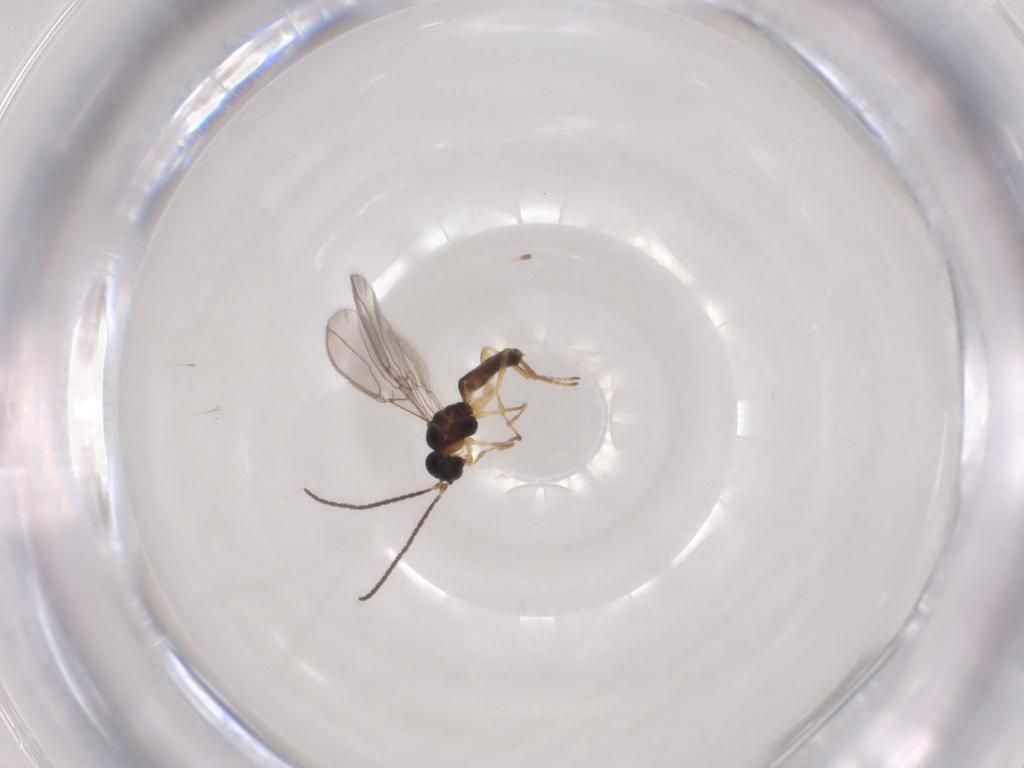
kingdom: Animalia
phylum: Arthropoda
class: Insecta
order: Hymenoptera
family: Braconidae
